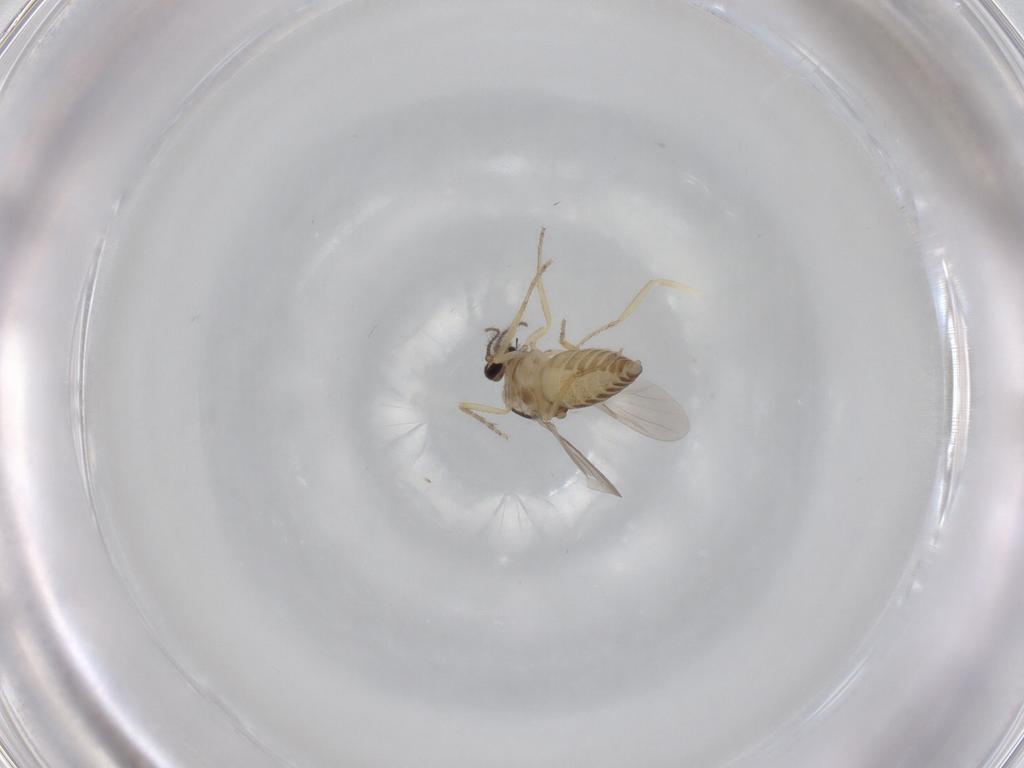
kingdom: Animalia
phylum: Arthropoda
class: Insecta
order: Diptera
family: Ceratopogonidae
